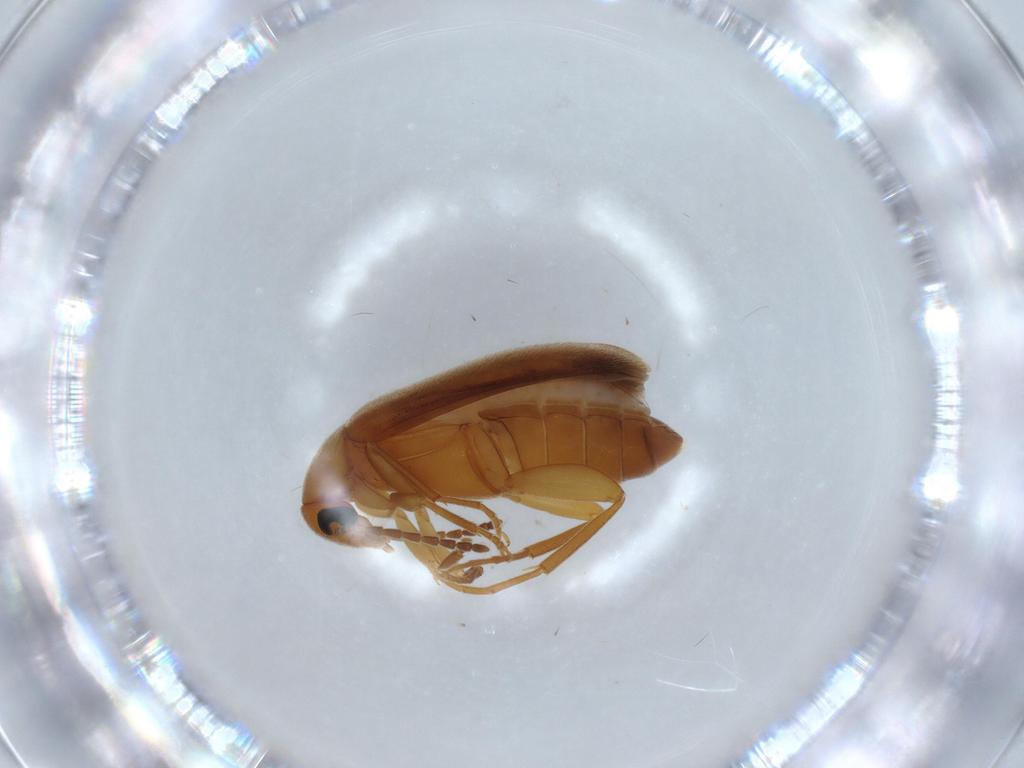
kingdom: Animalia
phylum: Arthropoda
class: Insecta
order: Coleoptera
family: Scraptiidae
